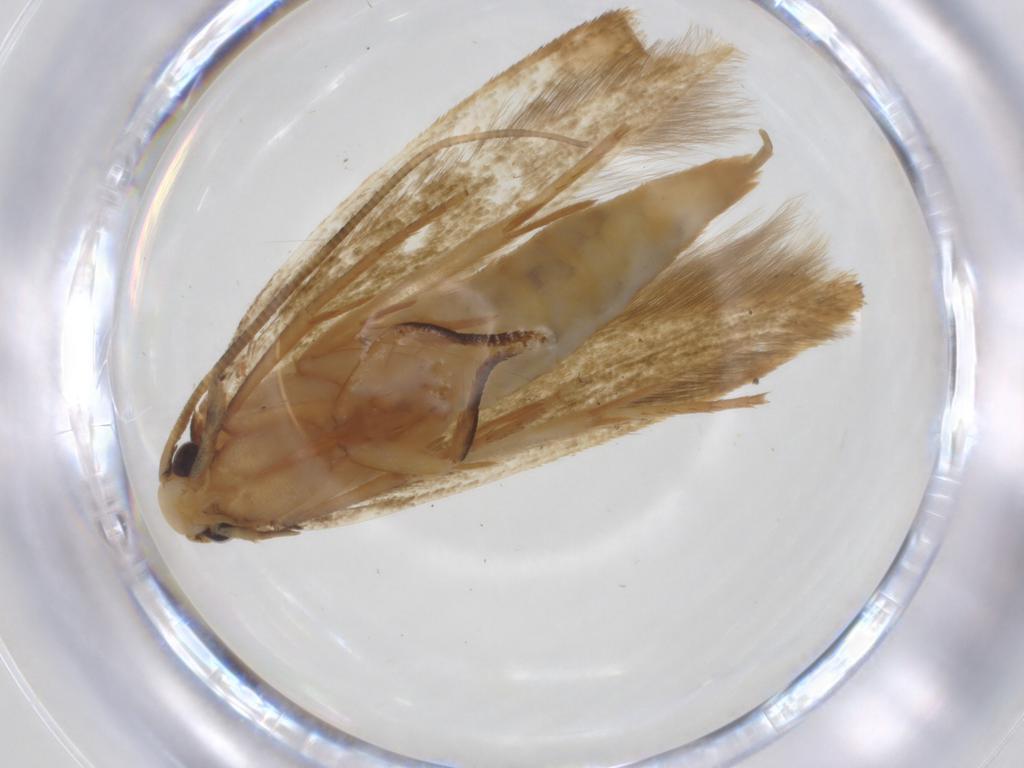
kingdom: Animalia
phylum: Arthropoda
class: Insecta
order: Lepidoptera
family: Tineidae
